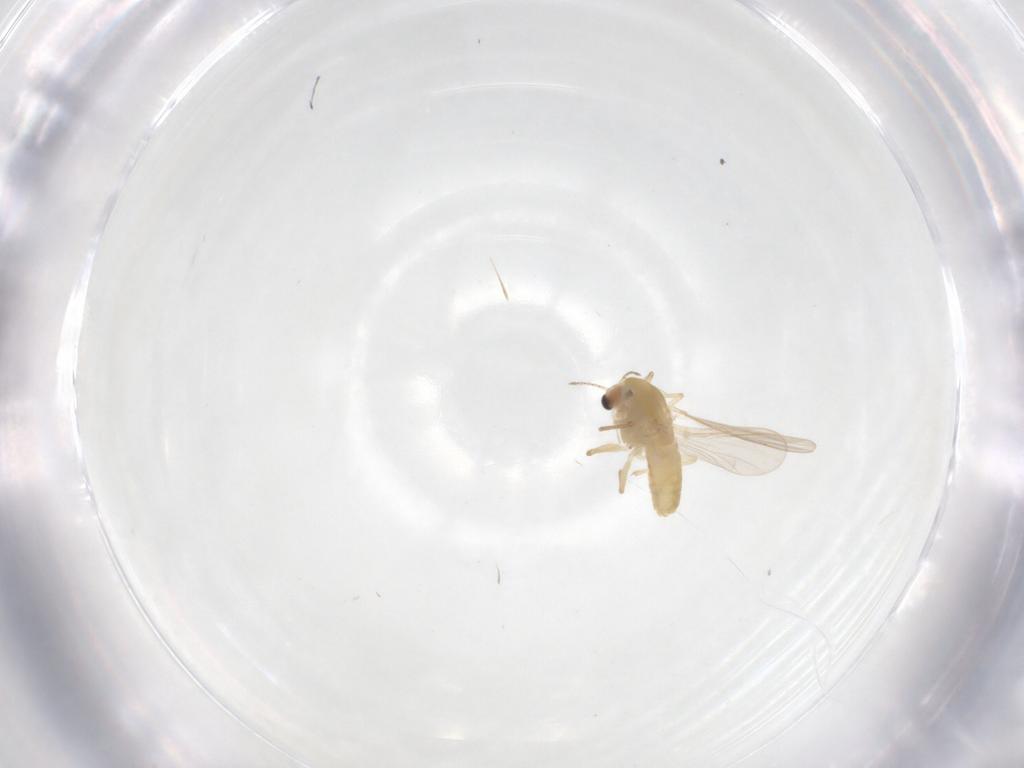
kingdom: Animalia
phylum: Arthropoda
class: Insecta
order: Diptera
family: Chironomidae
